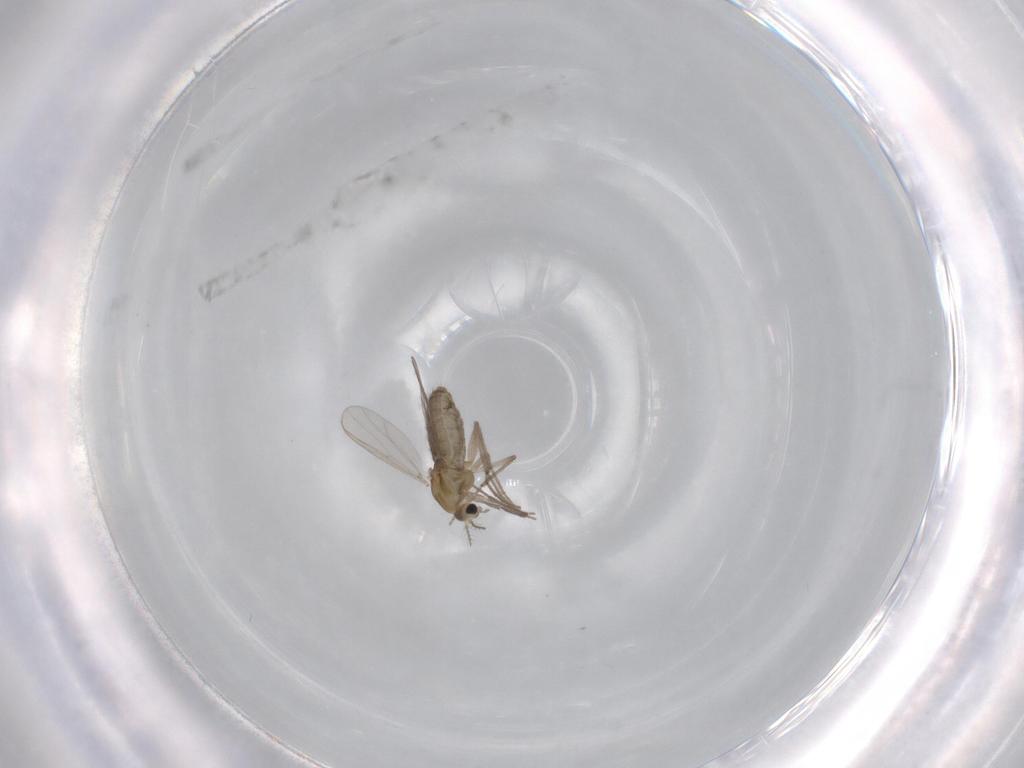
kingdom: Animalia
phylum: Arthropoda
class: Insecta
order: Diptera
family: Chironomidae
